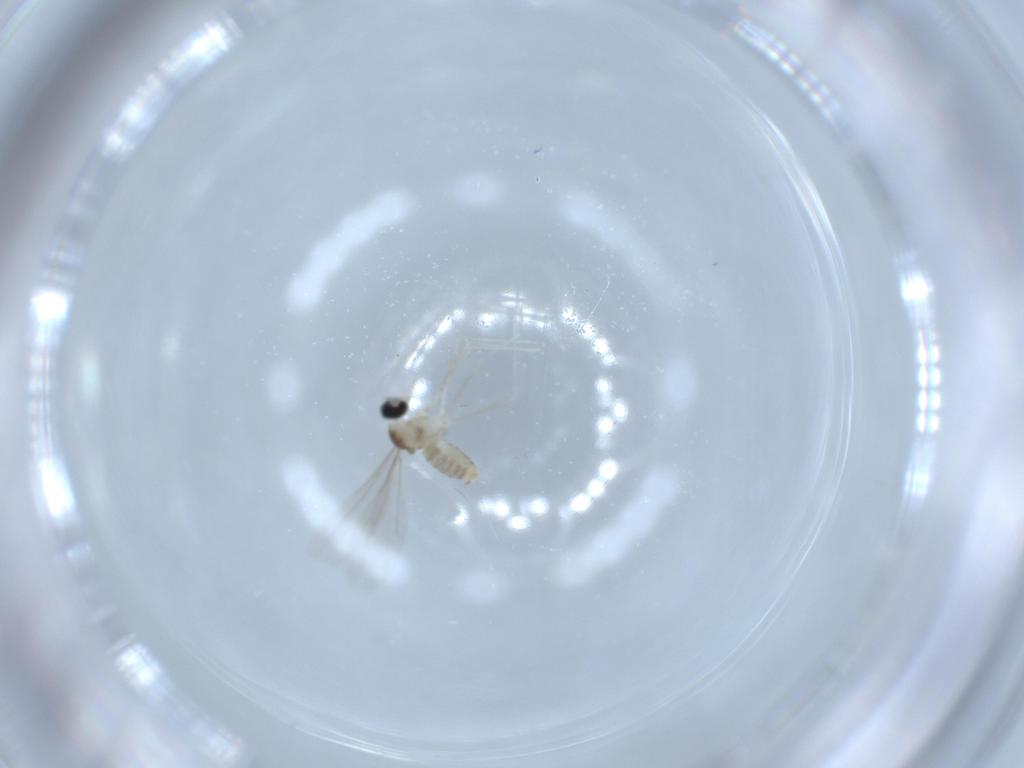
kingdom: Animalia
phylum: Arthropoda
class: Insecta
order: Diptera
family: Cecidomyiidae
